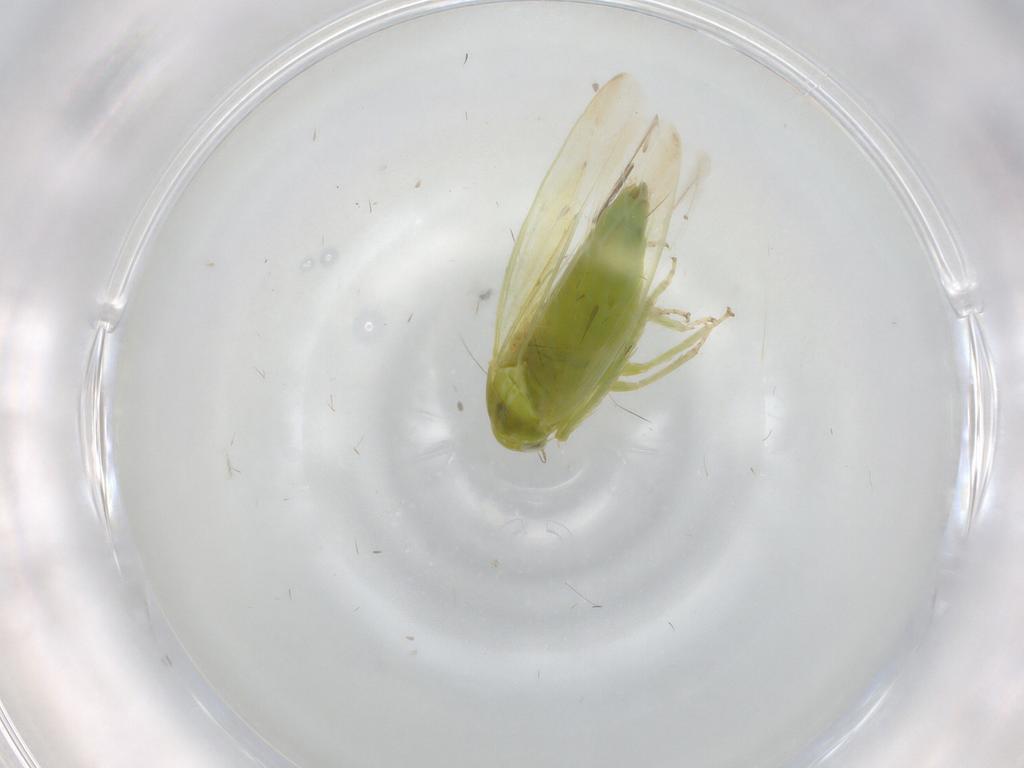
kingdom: Animalia
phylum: Arthropoda
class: Insecta
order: Hemiptera
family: Cicadellidae
